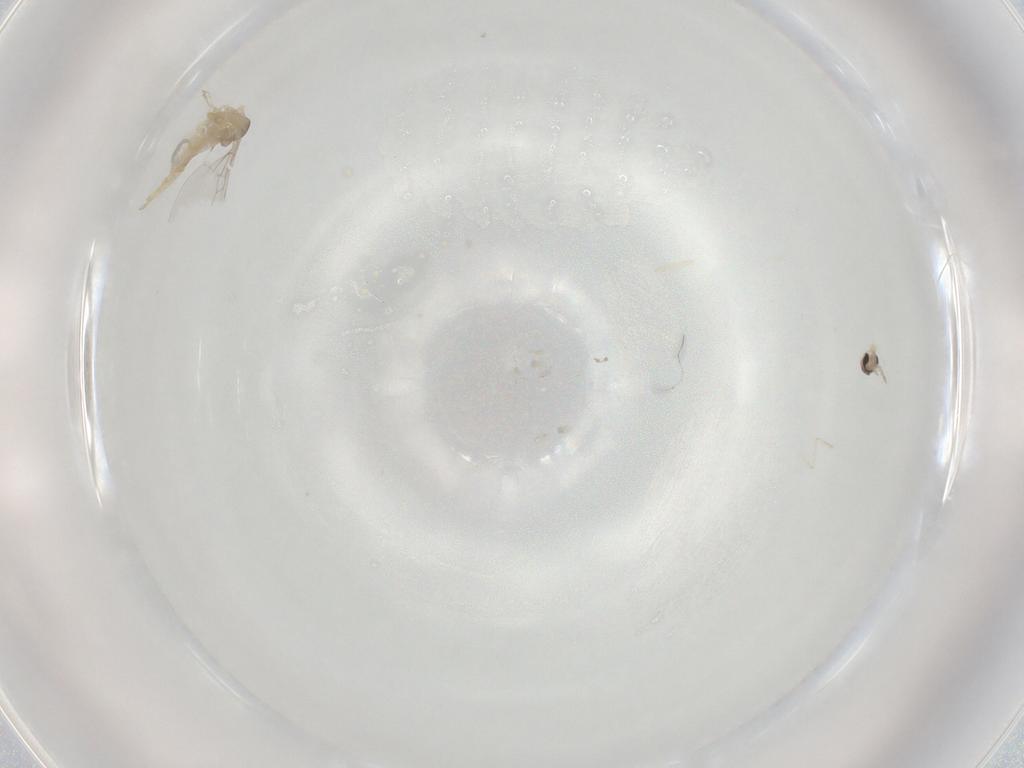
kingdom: Animalia
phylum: Arthropoda
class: Insecta
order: Diptera
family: Cecidomyiidae
